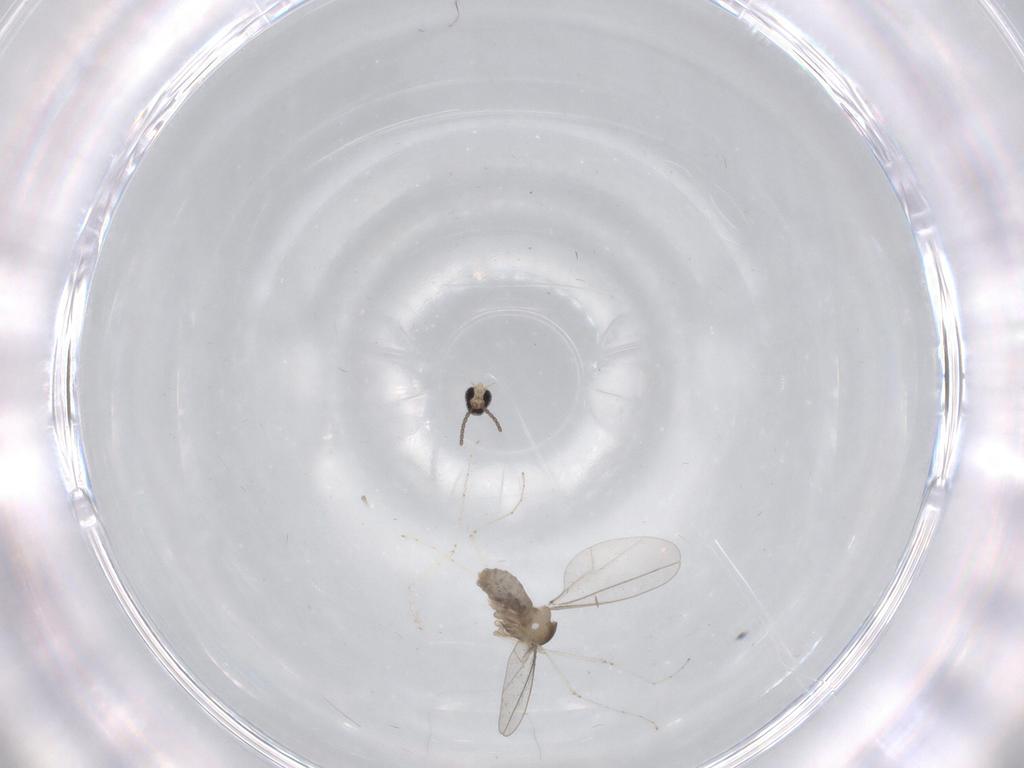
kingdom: Animalia
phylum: Arthropoda
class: Insecta
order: Diptera
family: Cecidomyiidae
